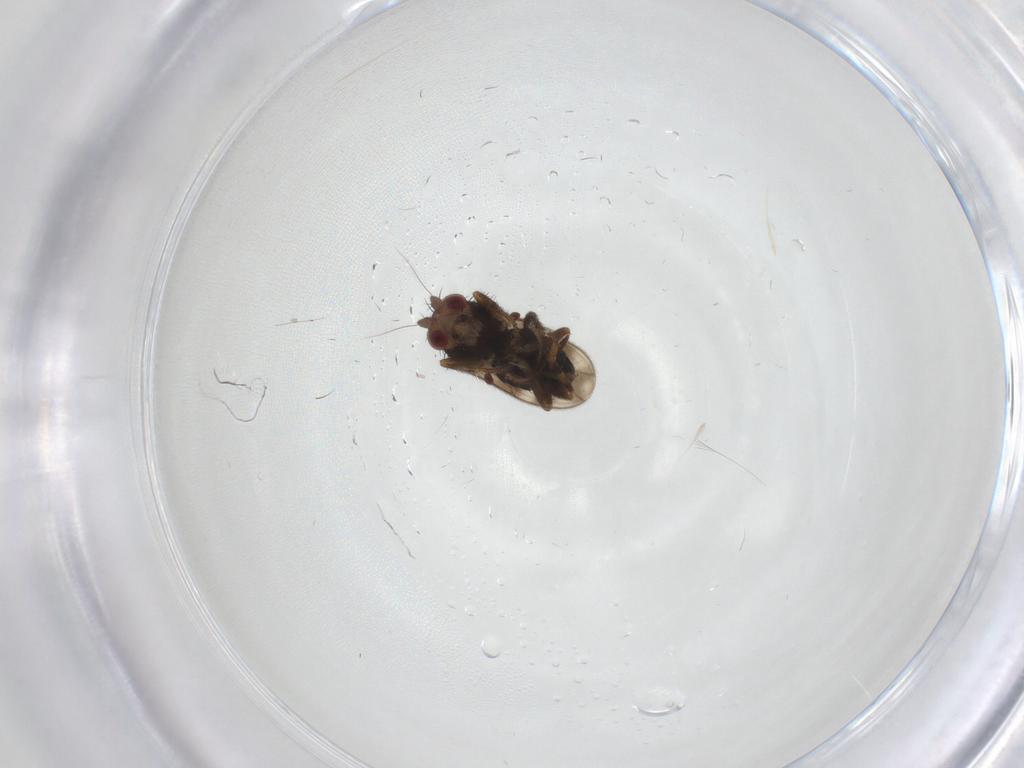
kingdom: Animalia
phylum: Arthropoda
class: Insecta
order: Diptera
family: Sphaeroceridae
